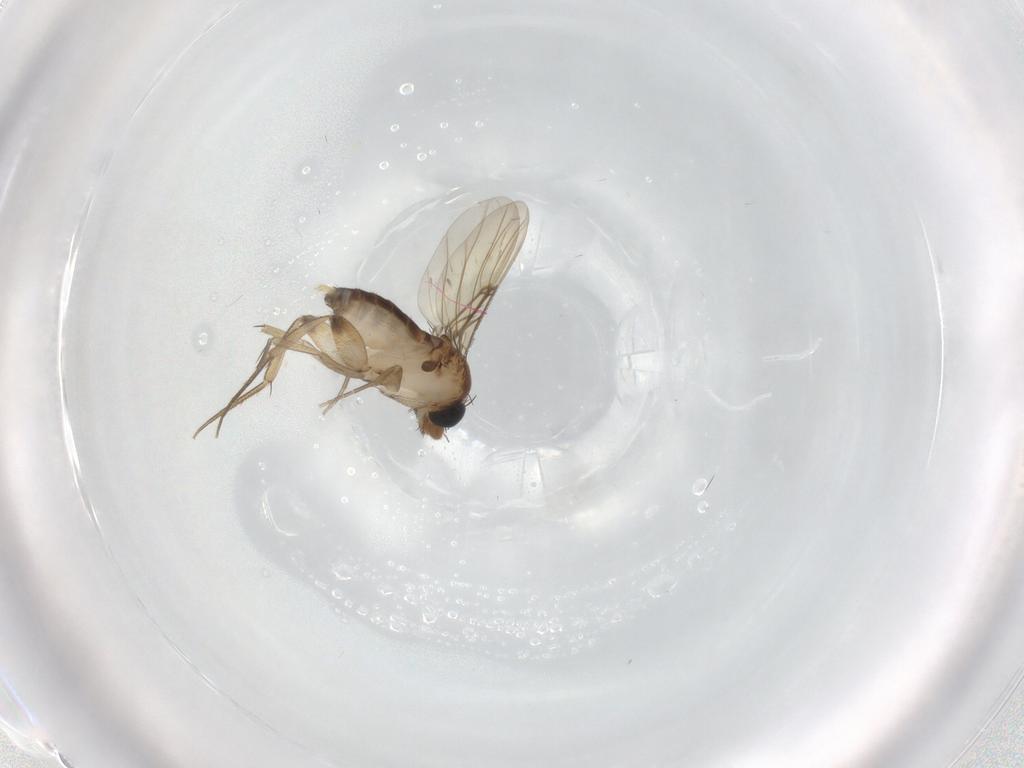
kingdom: Animalia
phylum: Arthropoda
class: Insecta
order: Diptera
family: Phoridae
